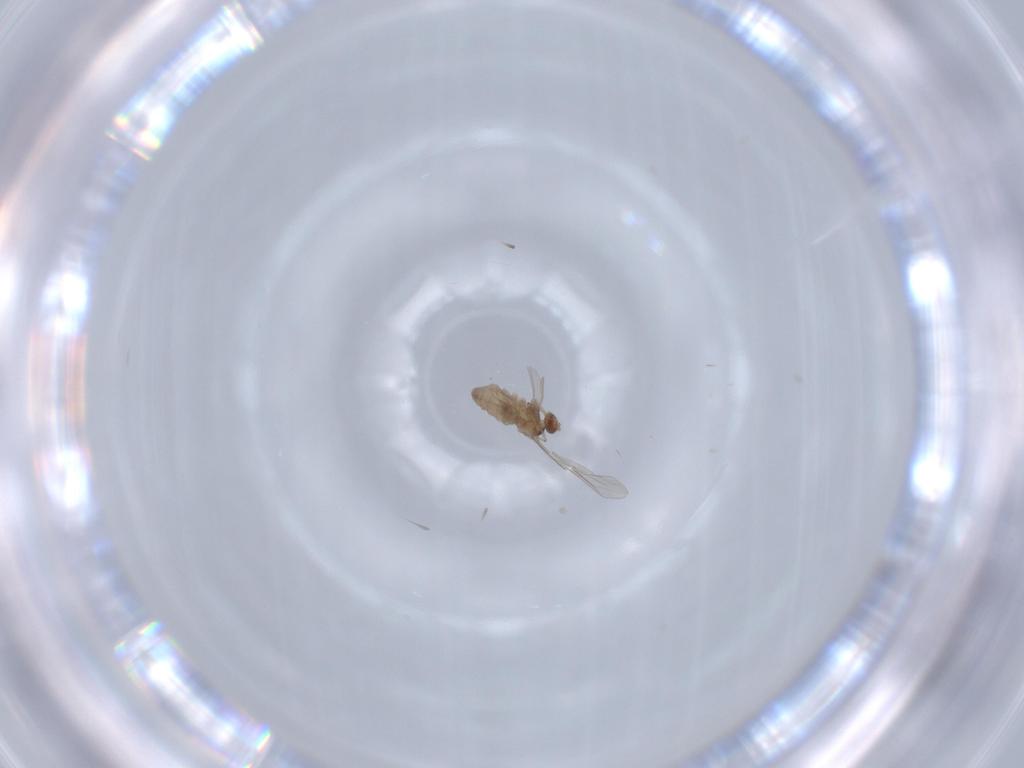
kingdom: Animalia
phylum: Arthropoda
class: Insecta
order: Diptera
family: Cecidomyiidae
